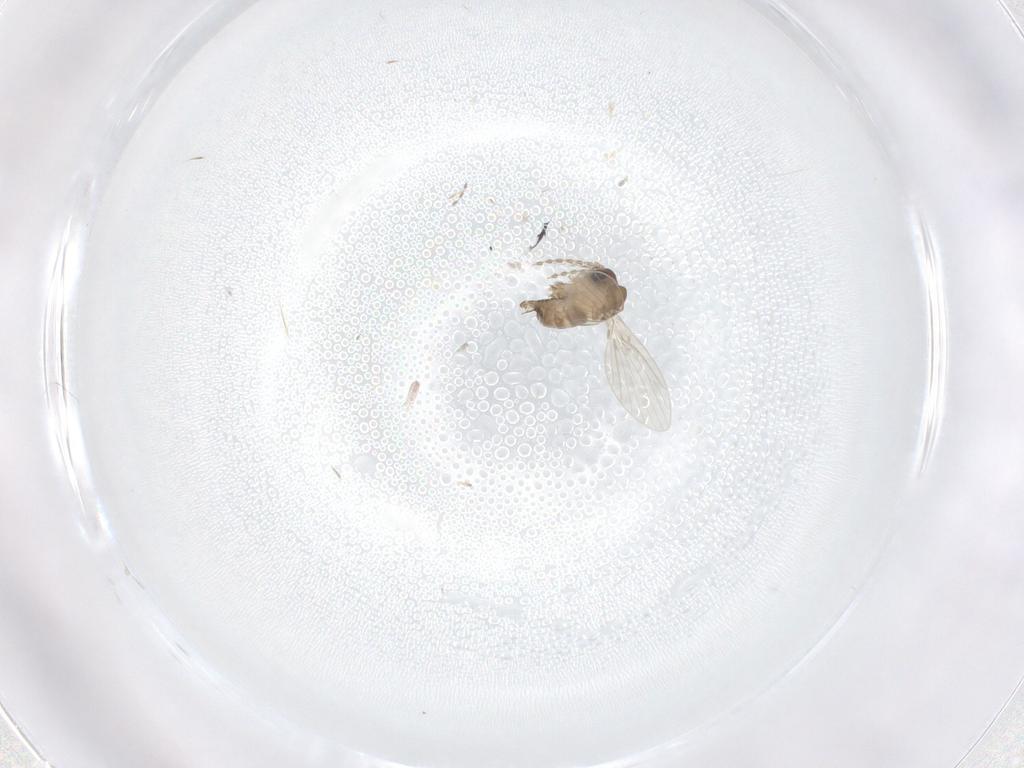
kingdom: Animalia
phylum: Arthropoda
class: Insecta
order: Diptera
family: Cecidomyiidae
